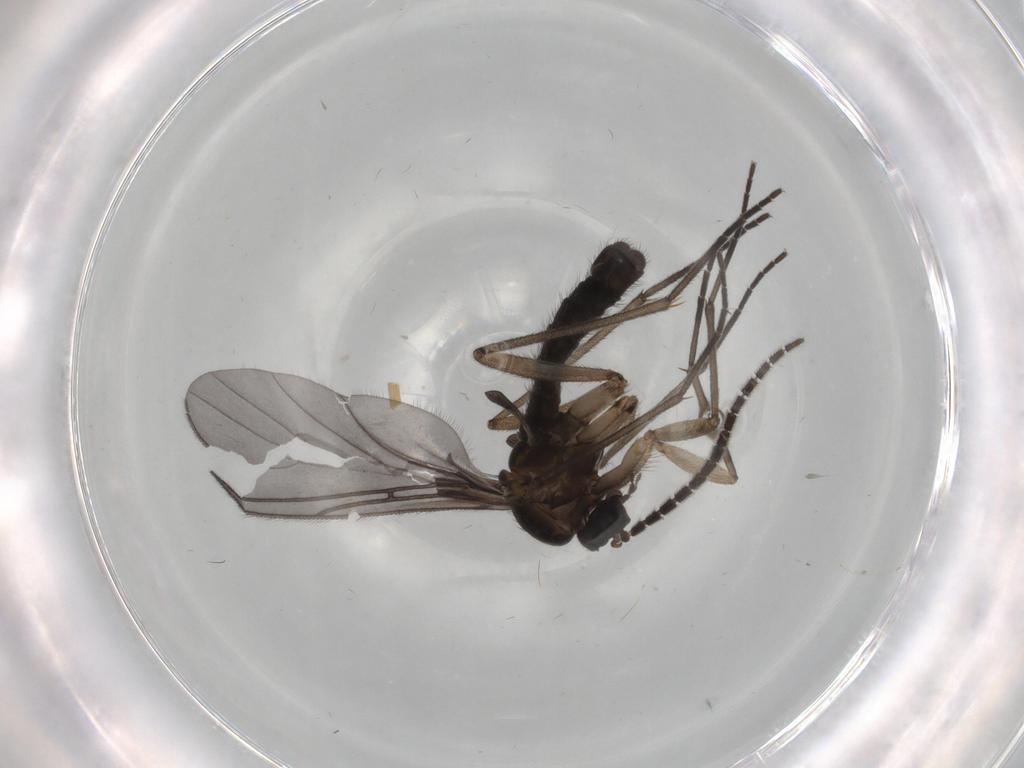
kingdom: Animalia
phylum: Arthropoda
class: Insecta
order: Diptera
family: Sciaridae
